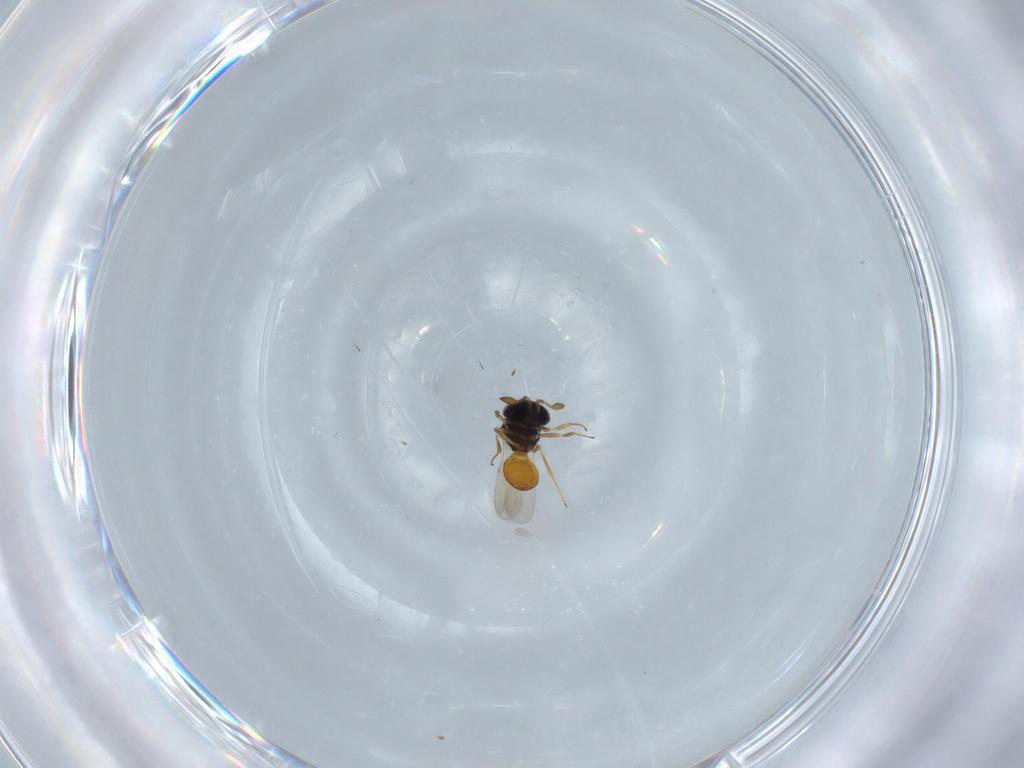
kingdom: Animalia
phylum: Arthropoda
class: Insecta
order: Hymenoptera
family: Scelionidae
